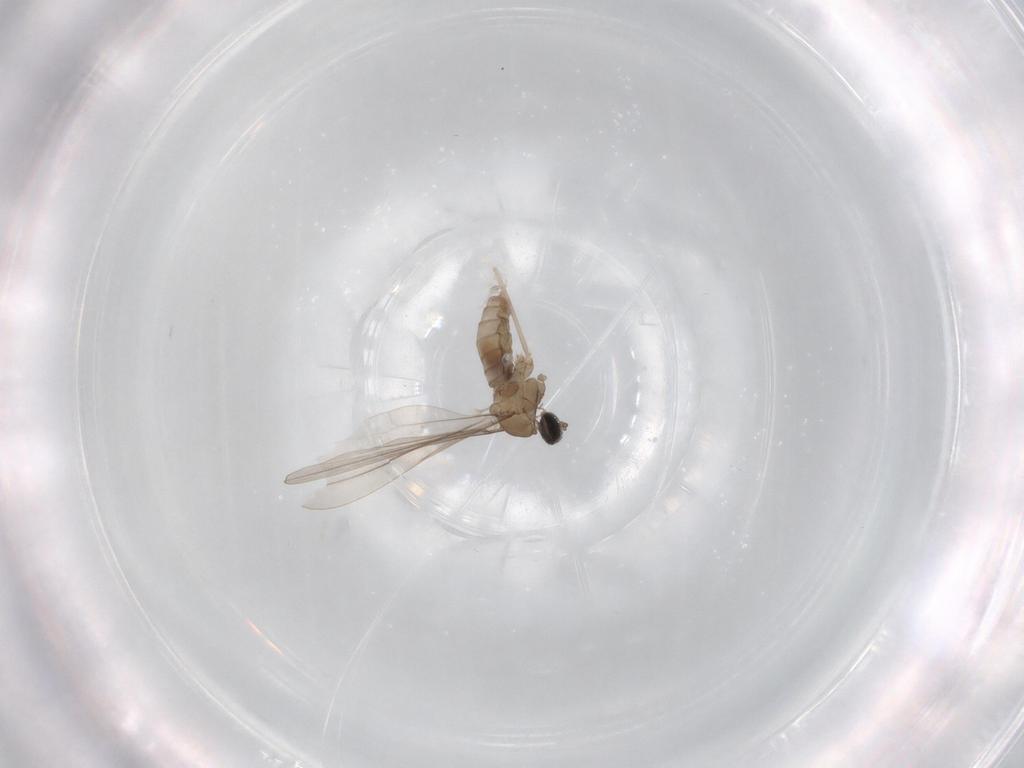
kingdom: Animalia
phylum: Arthropoda
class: Insecta
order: Diptera
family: Tabanidae
